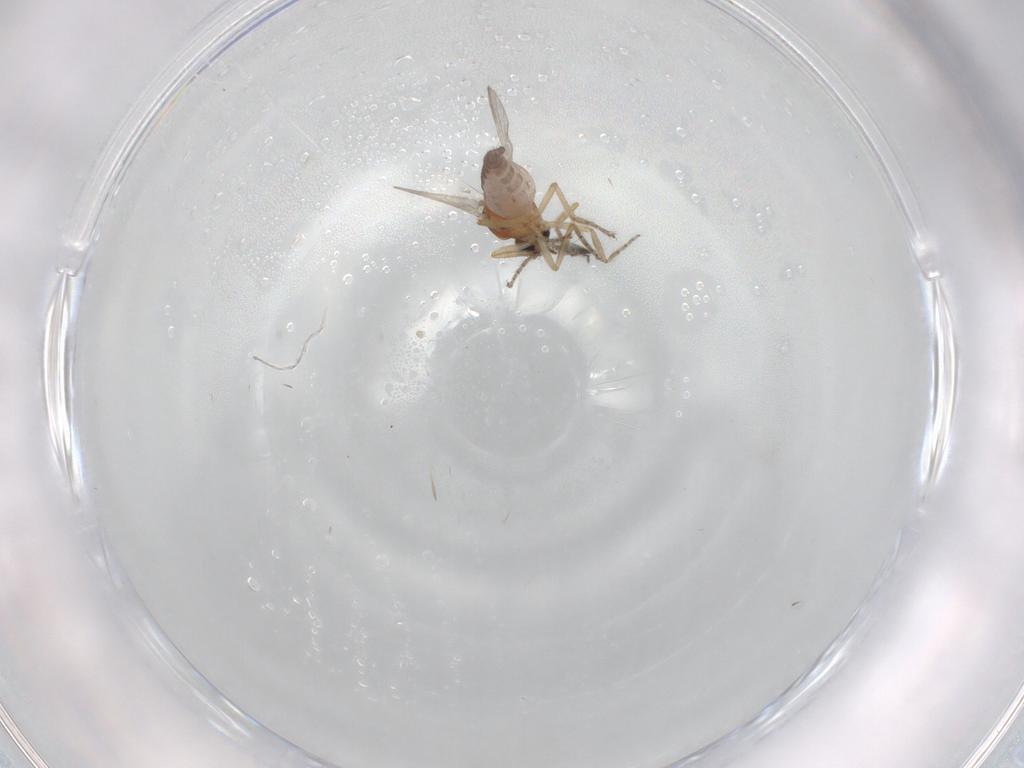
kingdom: Animalia
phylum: Arthropoda
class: Insecta
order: Diptera
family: Ceratopogonidae
